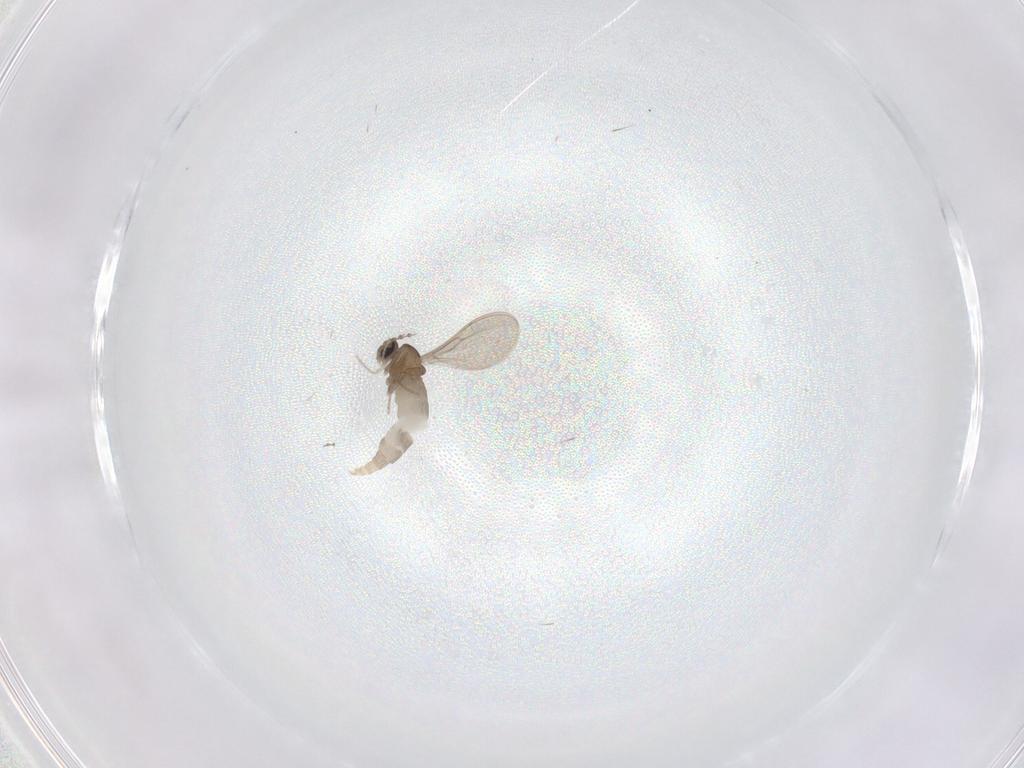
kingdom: Animalia
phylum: Arthropoda
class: Insecta
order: Diptera
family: Cecidomyiidae
